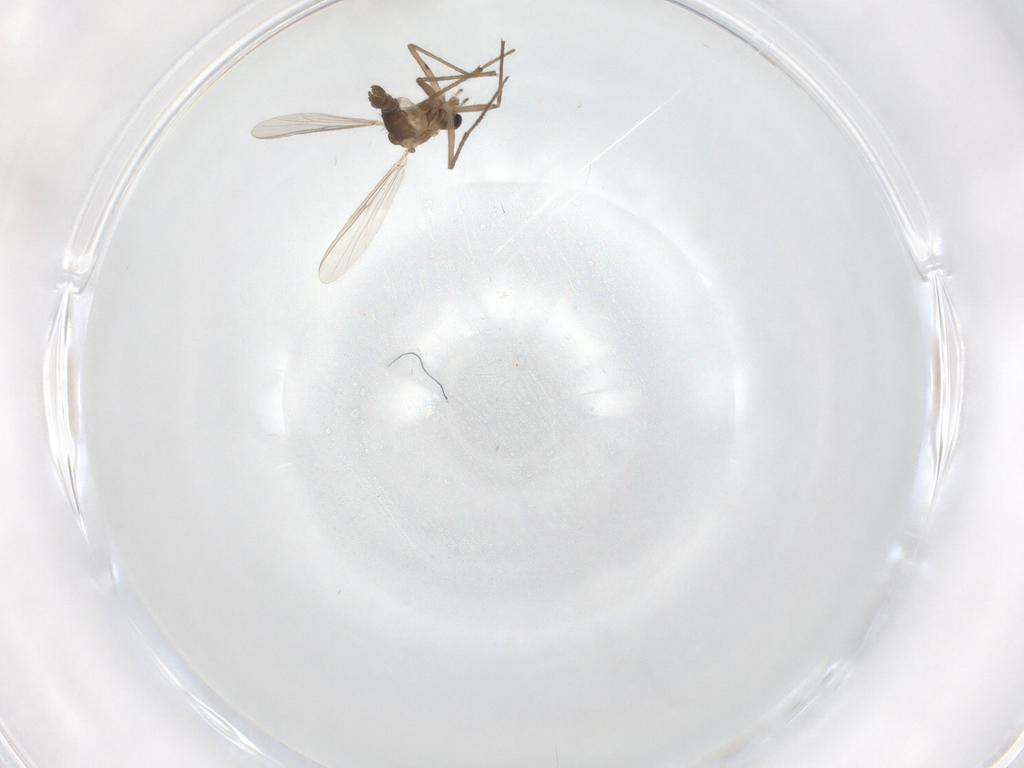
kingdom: Animalia
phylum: Arthropoda
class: Insecta
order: Diptera
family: Chironomidae
